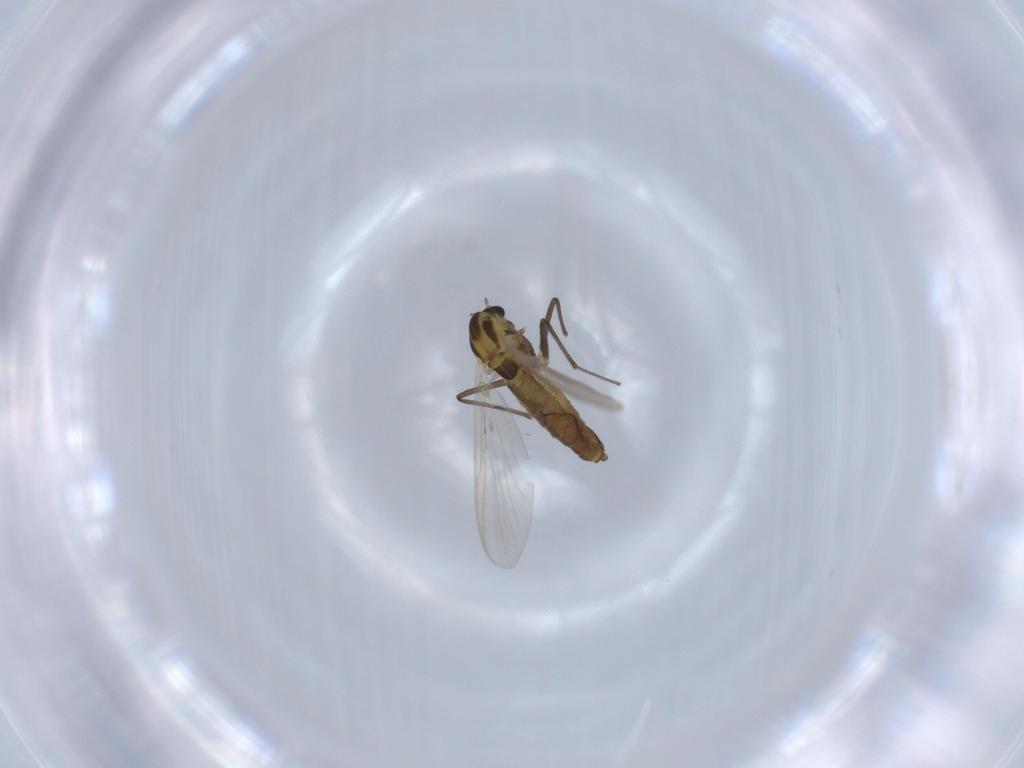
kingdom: Animalia
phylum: Arthropoda
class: Insecta
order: Diptera
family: Chironomidae
